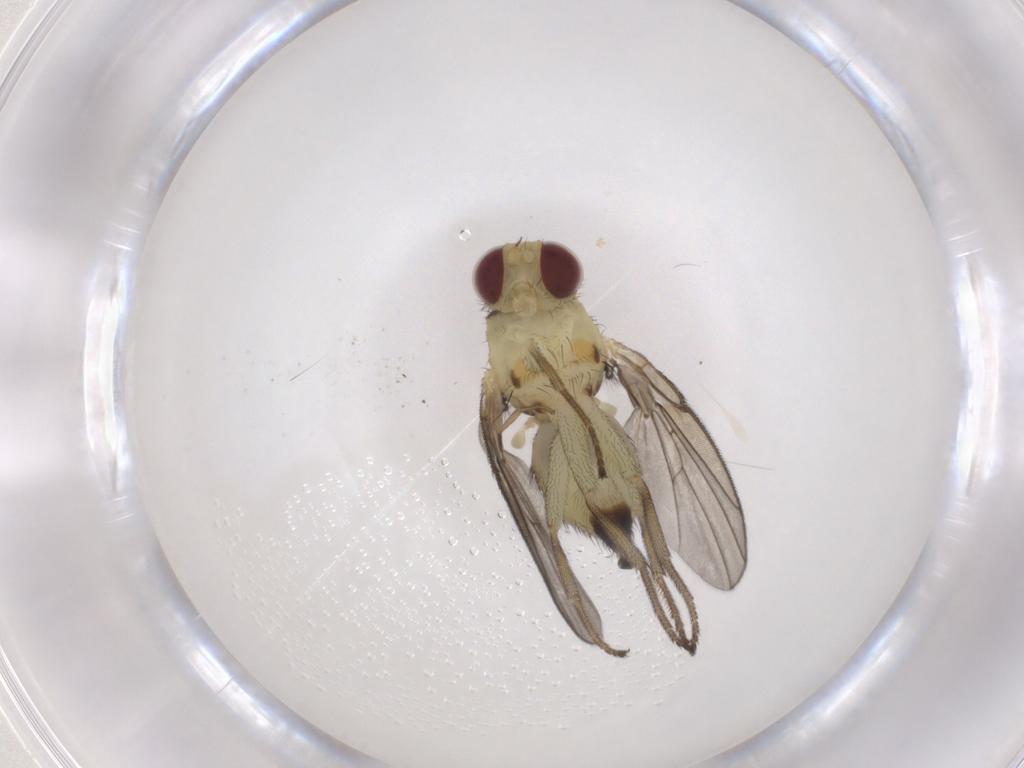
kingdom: Animalia
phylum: Arthropoda
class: Insecta
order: Diptera
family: Agromyzidae
